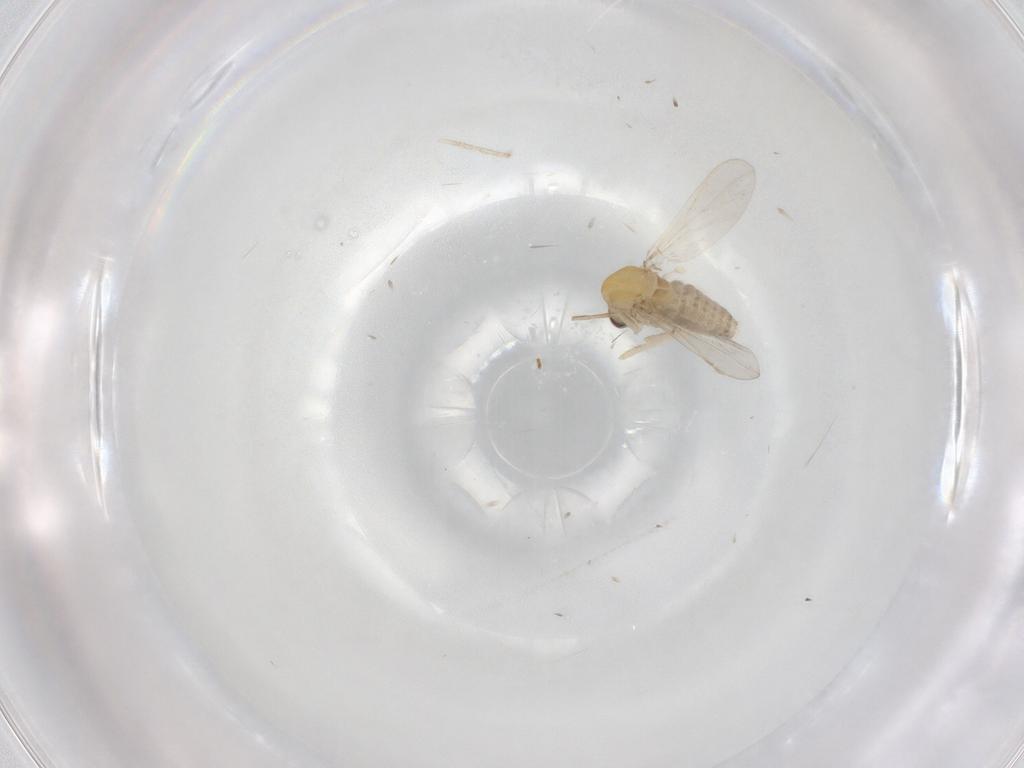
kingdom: Animalia
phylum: Arthropoda
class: Insecta
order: Diptera
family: Chironomidae
